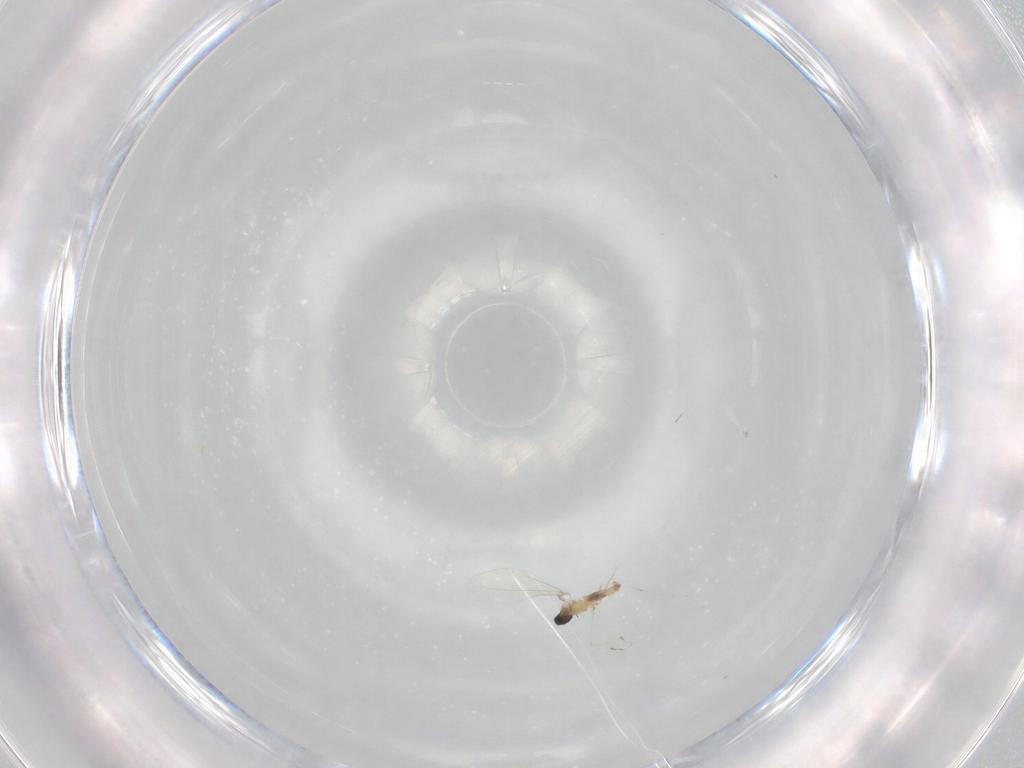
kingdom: Animalia
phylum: Arthropoda
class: Insecta
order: Diptera
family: Cecidomyiidae
